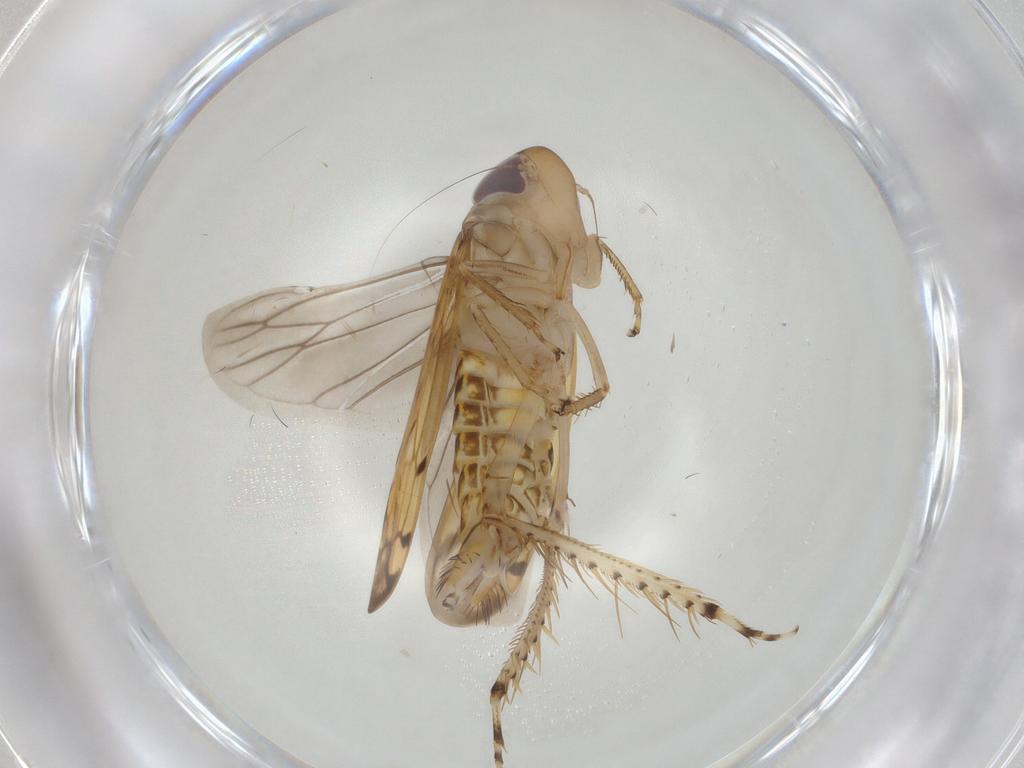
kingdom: Animalia
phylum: Arthropoda
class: Insecta
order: Hemiptera
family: Cicadellidae
